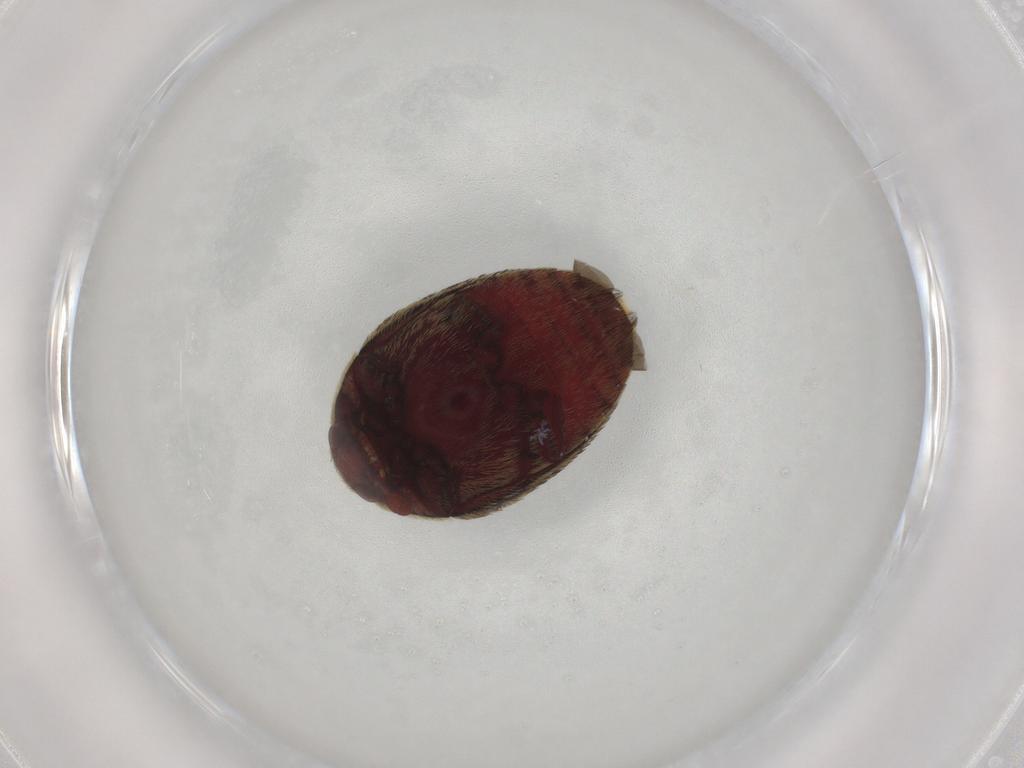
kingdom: Animalia
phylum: Arthropoda
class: Insecta
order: Coleoptera
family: Dermestidae
